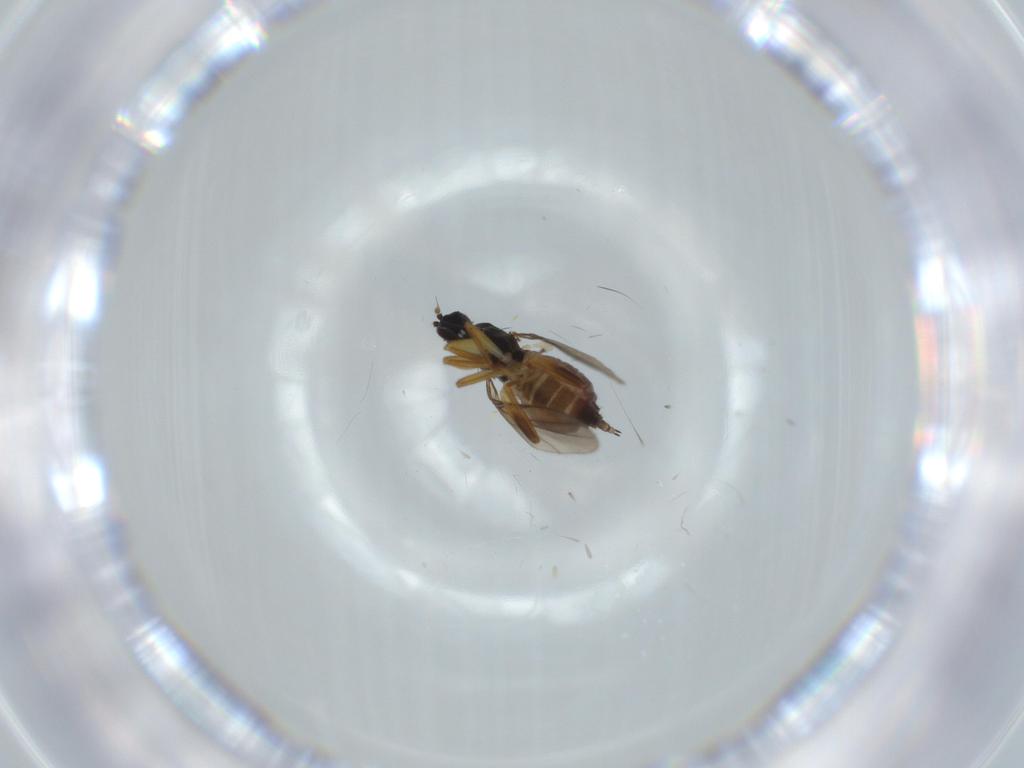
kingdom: Animalia
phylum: Arthropoda
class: Insecta
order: Diptera
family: Hybotidae
